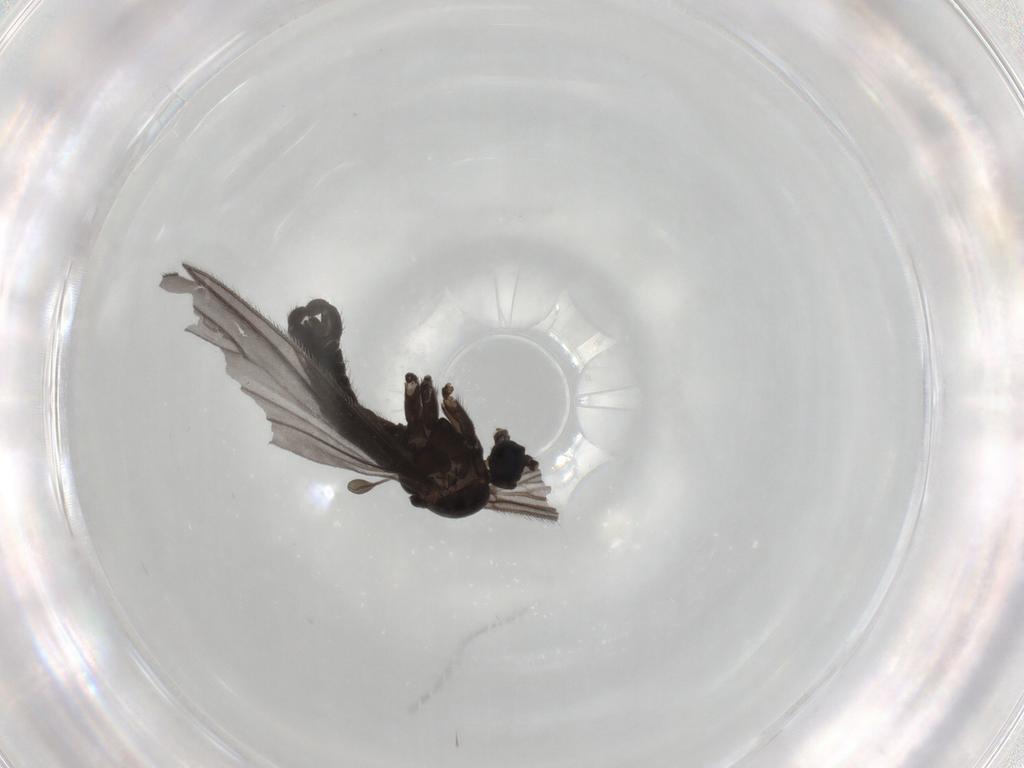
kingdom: Animalia
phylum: Arthropoda
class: Insecta
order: Diptera
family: Sciaridae
